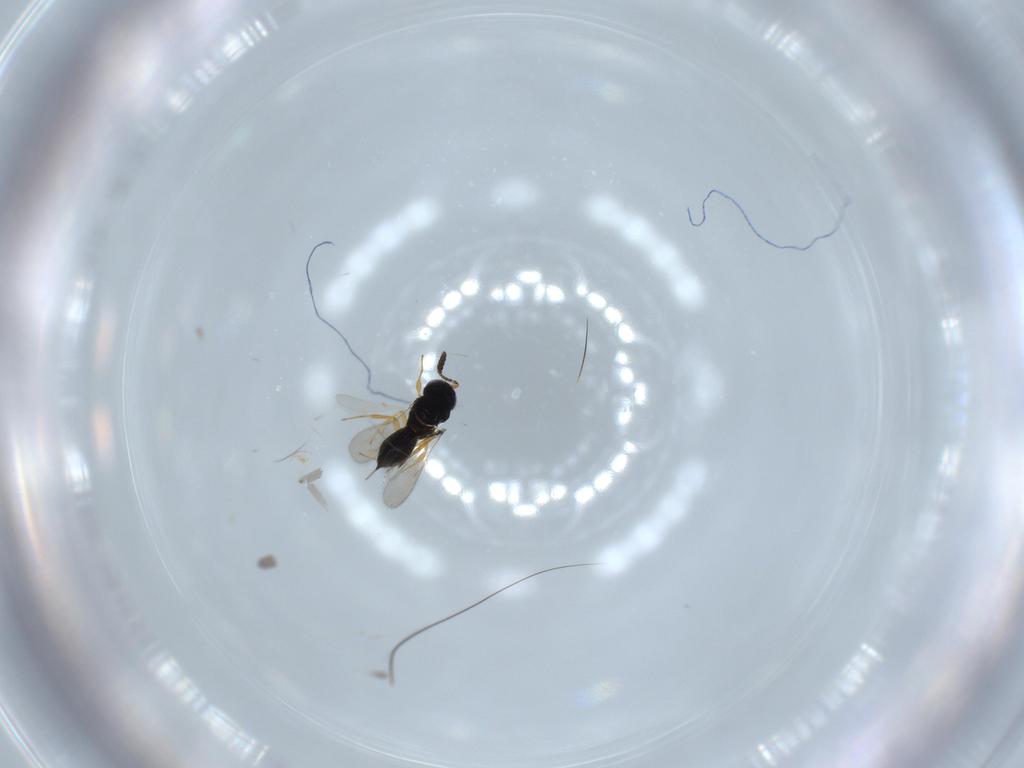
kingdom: Animalia
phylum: Arthropoda
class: Insecta
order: Hymenoptera
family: Scelionidae
